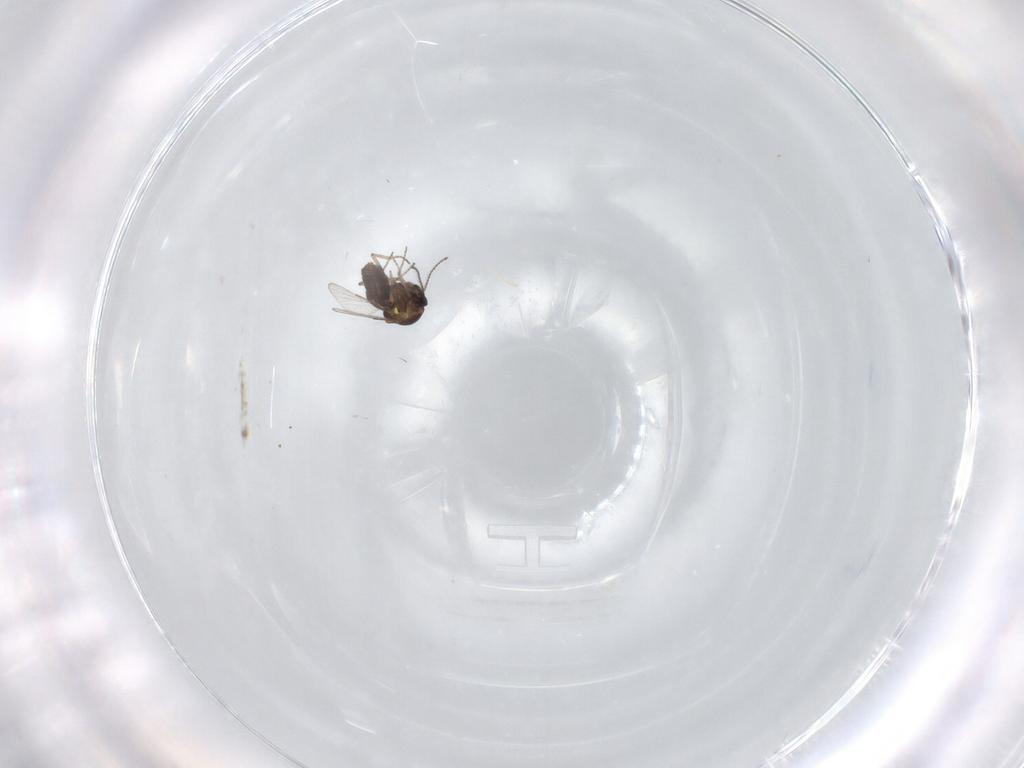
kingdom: Animalia
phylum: Arthropoda
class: Insecta
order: Diptera
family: Ceratopogonidae
